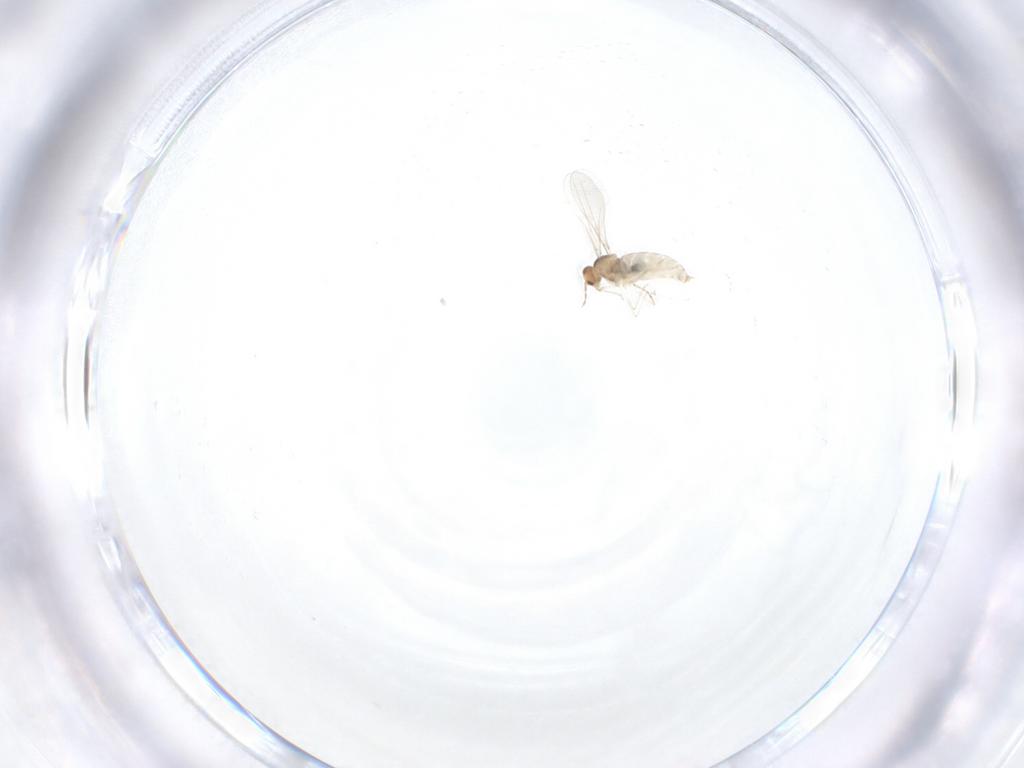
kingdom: Animalia
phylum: Arthropoda
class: Insecta
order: Diptera
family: Cecidomyiidae
